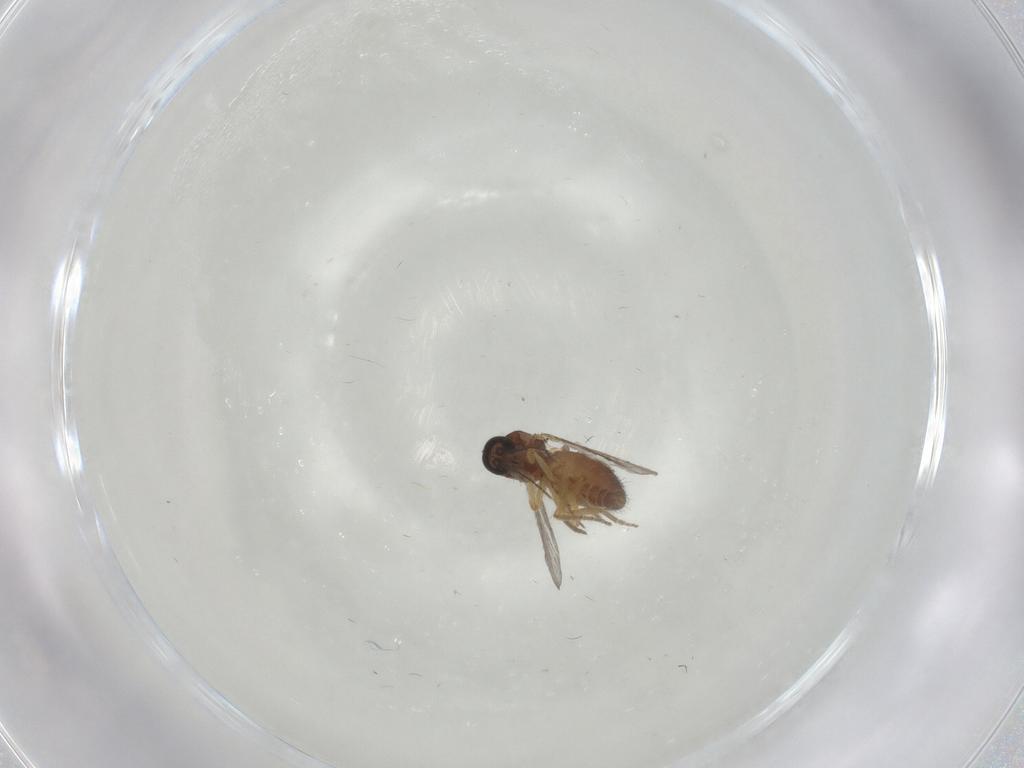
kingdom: Animalia
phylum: Arthropoda
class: Insecta
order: Diptera
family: Ceratopogonidae
